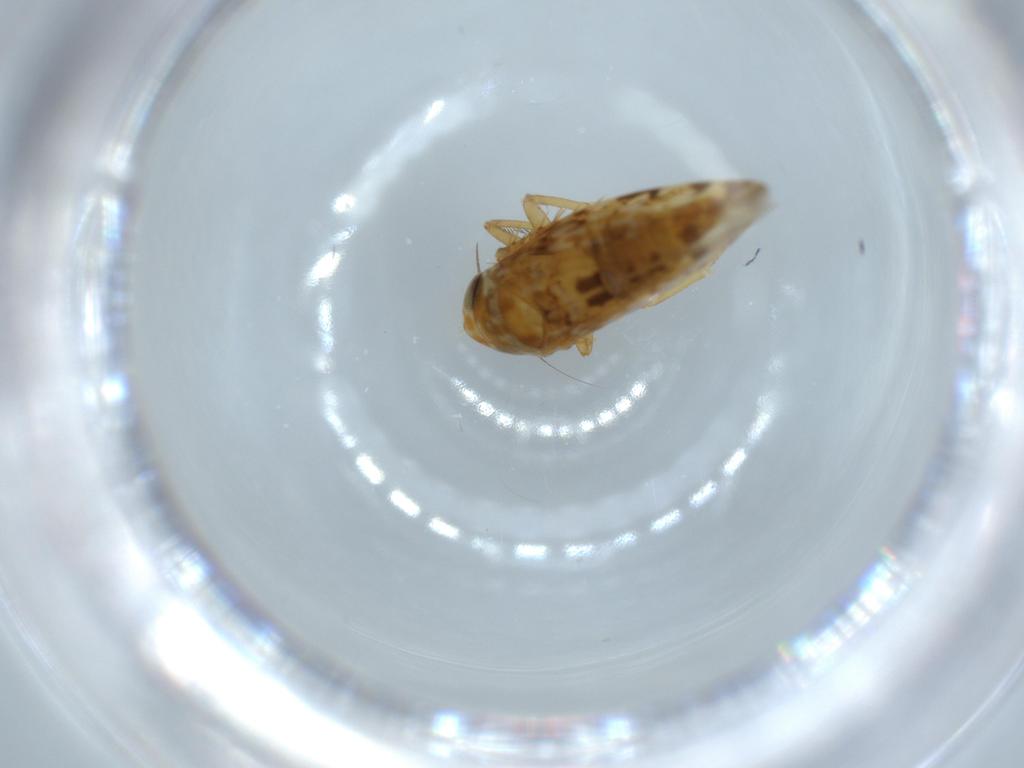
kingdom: Animalia
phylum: Arthropoda
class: Insecta
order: Hemiptera
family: Cicadellidae
